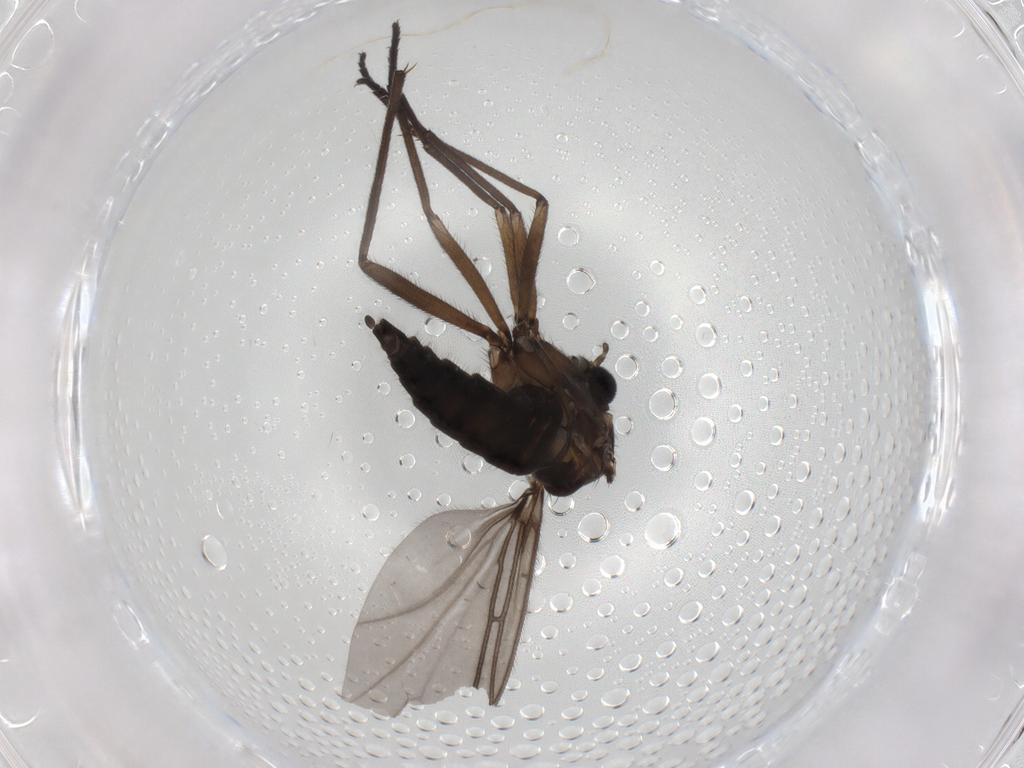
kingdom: Animalia
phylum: Arthropoda
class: Insecta
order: Diptera
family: Sciaridae
